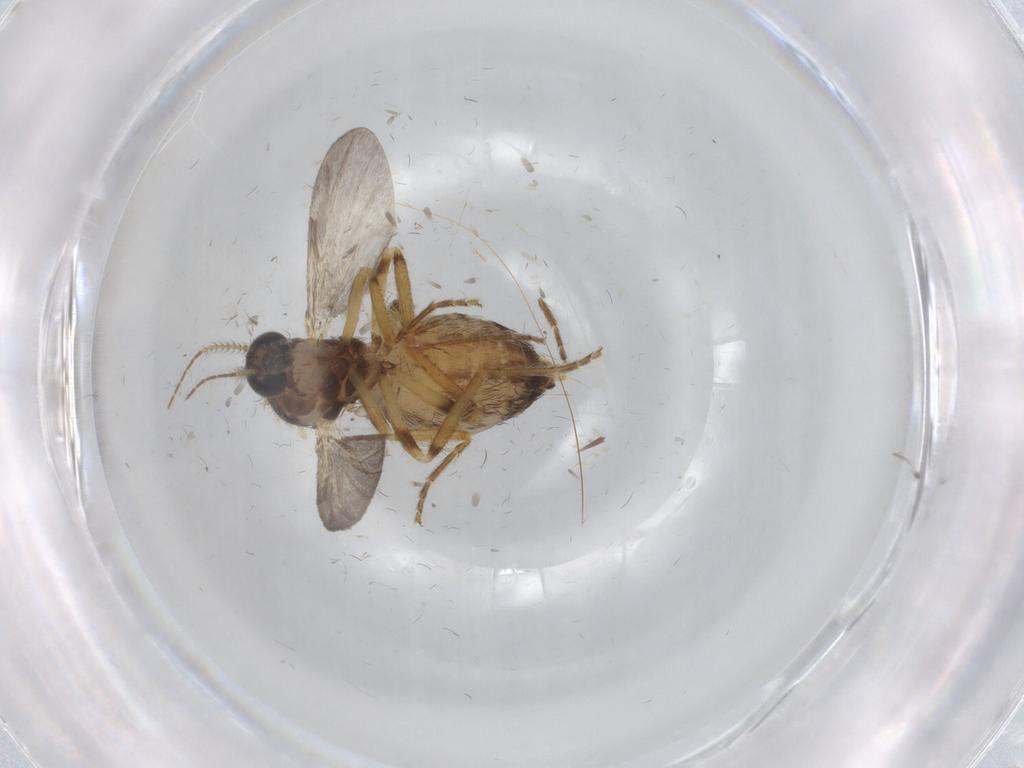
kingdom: Animalia
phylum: Arthropoda
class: Insecta
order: Diptera
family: Ceratopogonidae
